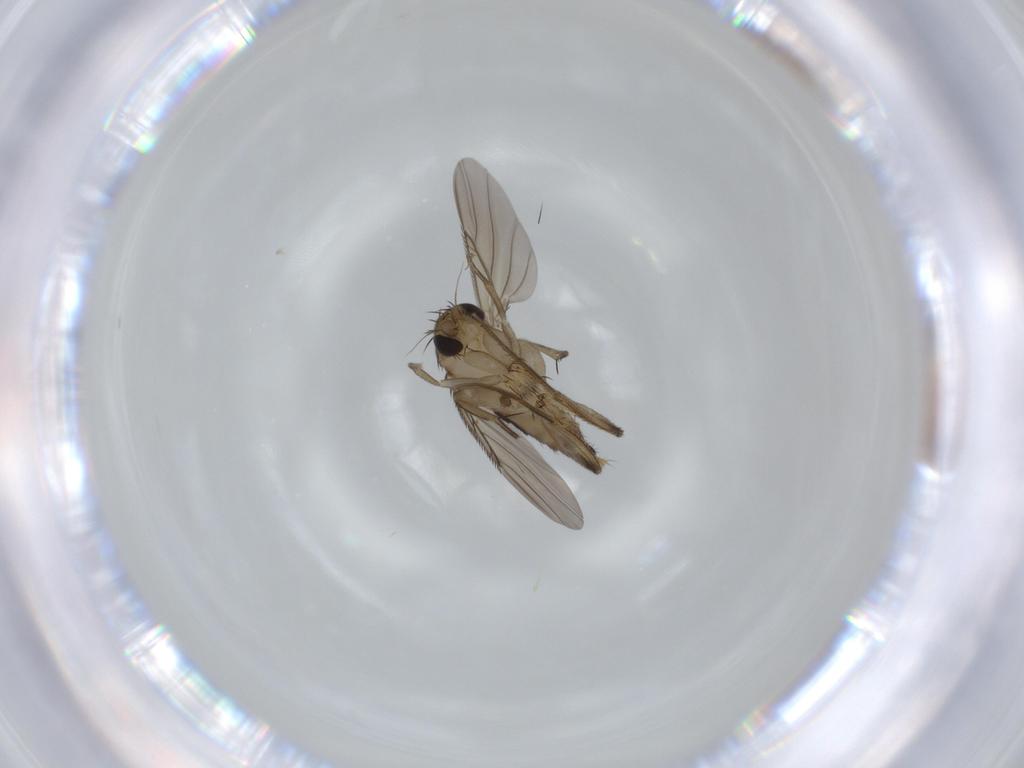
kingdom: Animalia
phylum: Arthropoda
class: Insecta
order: Diptera
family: Phoridae
